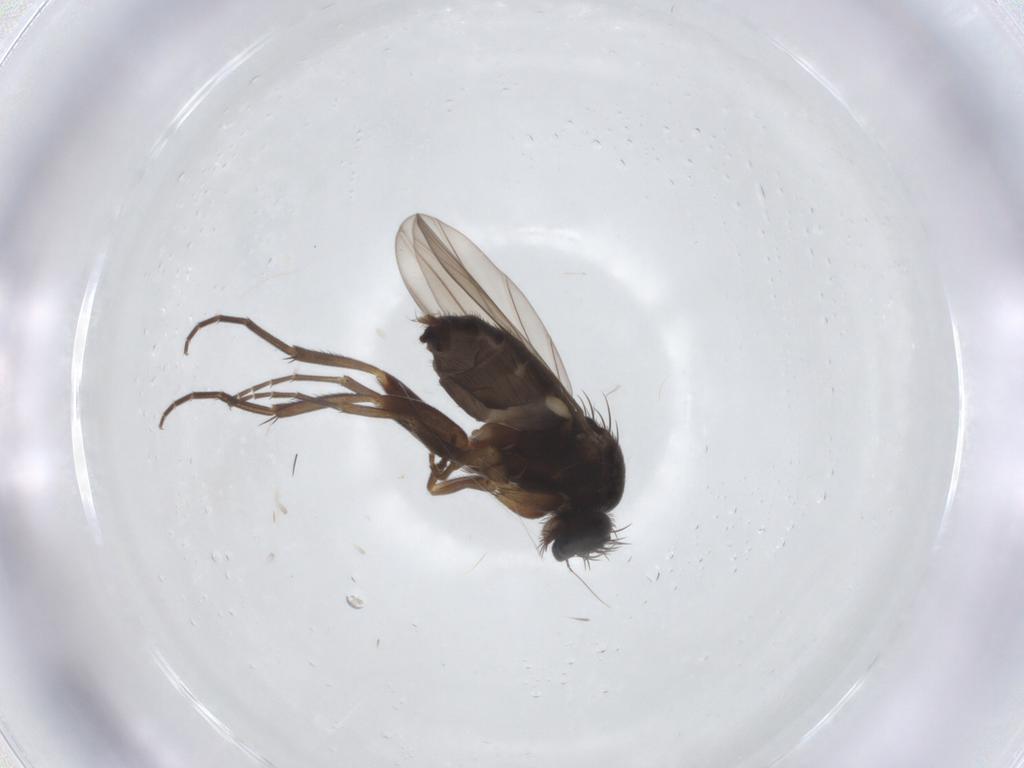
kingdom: Animalia
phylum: Arthropoda
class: Insecta
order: Diptera
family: Phoridae
